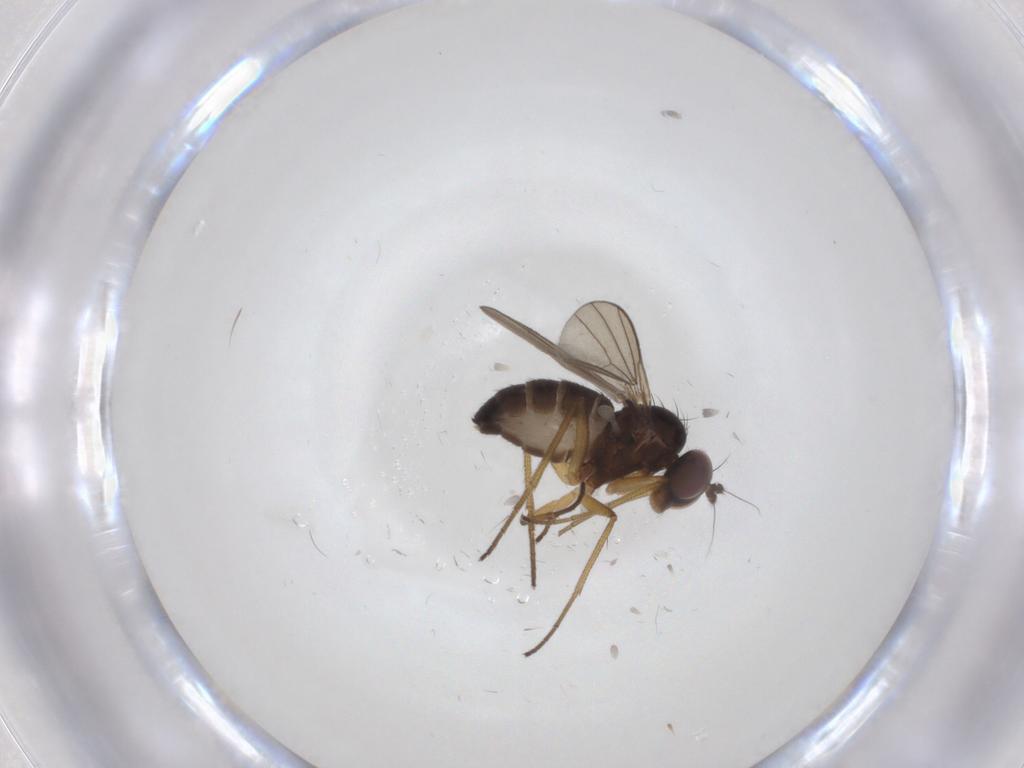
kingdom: Animalia
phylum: Arthropoda
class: Insecta
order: Diptera
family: Dolichopodidae
